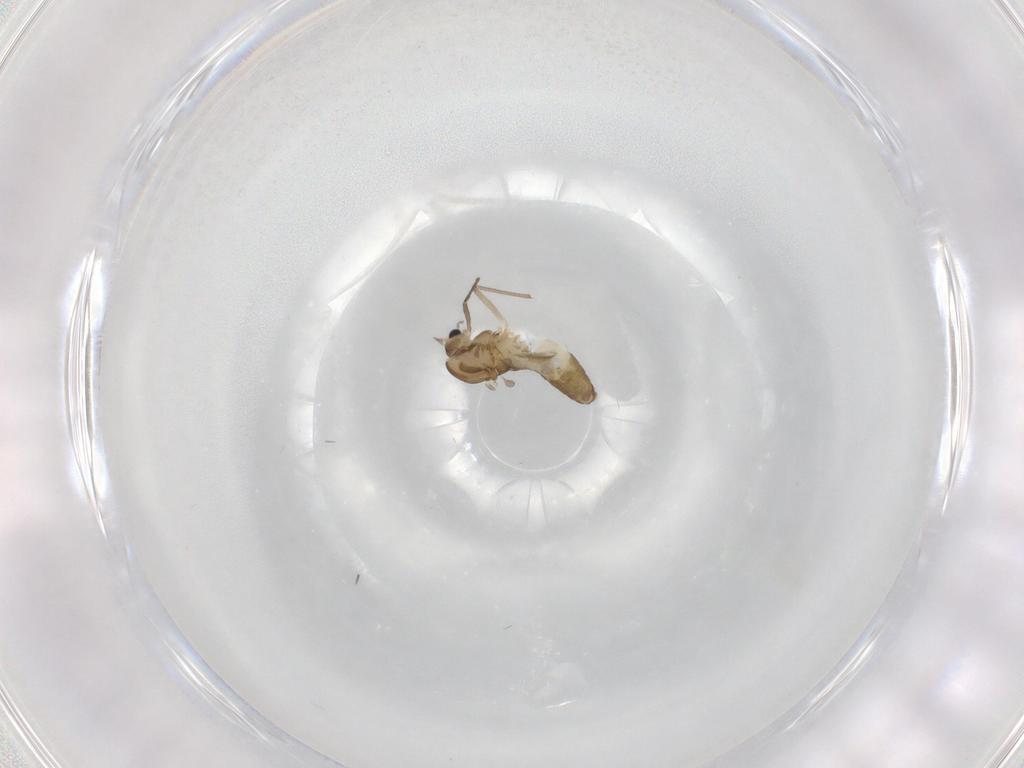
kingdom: Animalia
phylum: Arthropoda
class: Insecta
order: Diptera
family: Chironomidae
